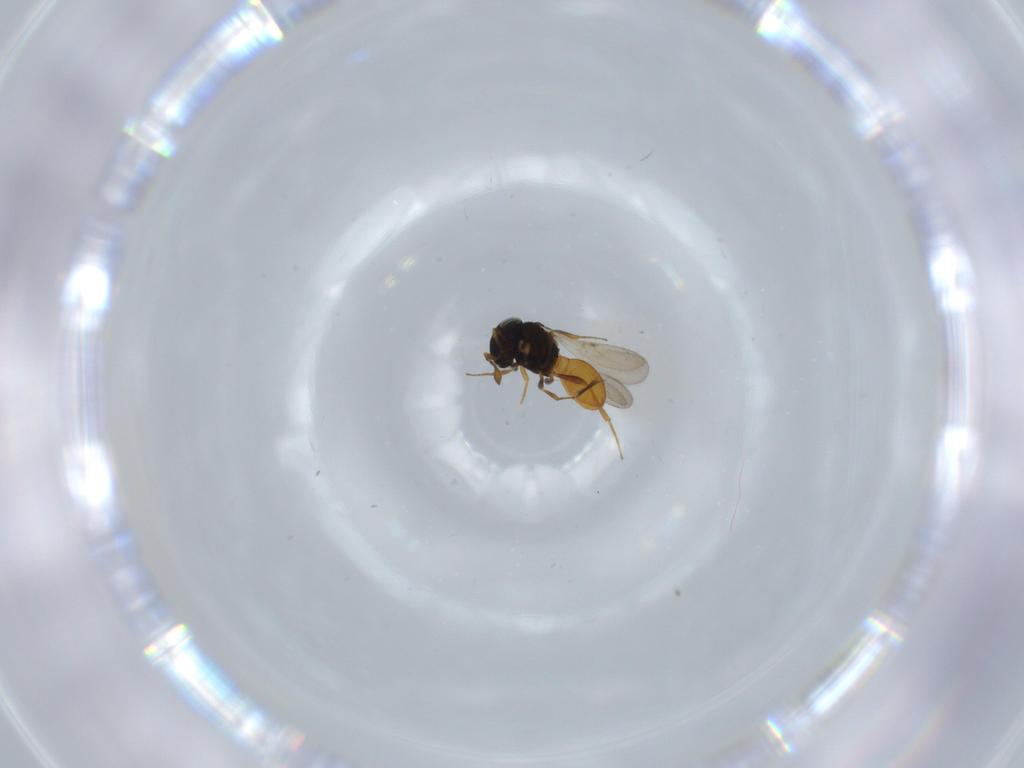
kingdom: Animalia
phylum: Arthropoda
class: Insecta
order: Hymenoptera
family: Scelionidae
